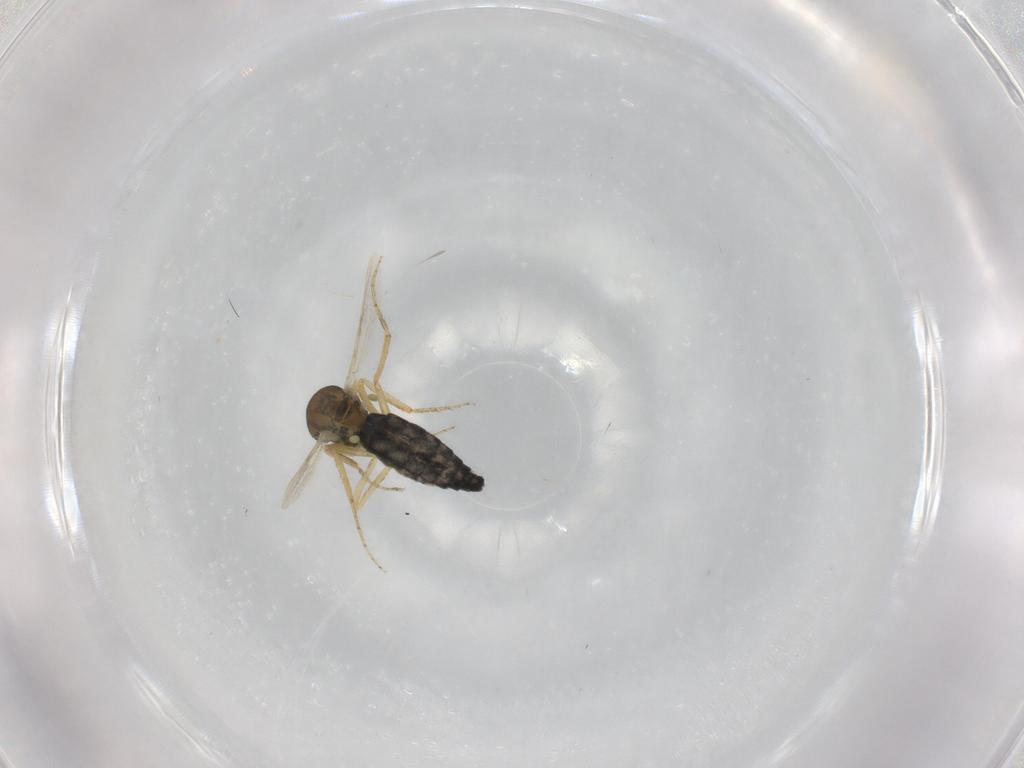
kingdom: Animalia
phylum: Arthropoda
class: Insecta
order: Diptera
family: Ceratopogonidae
